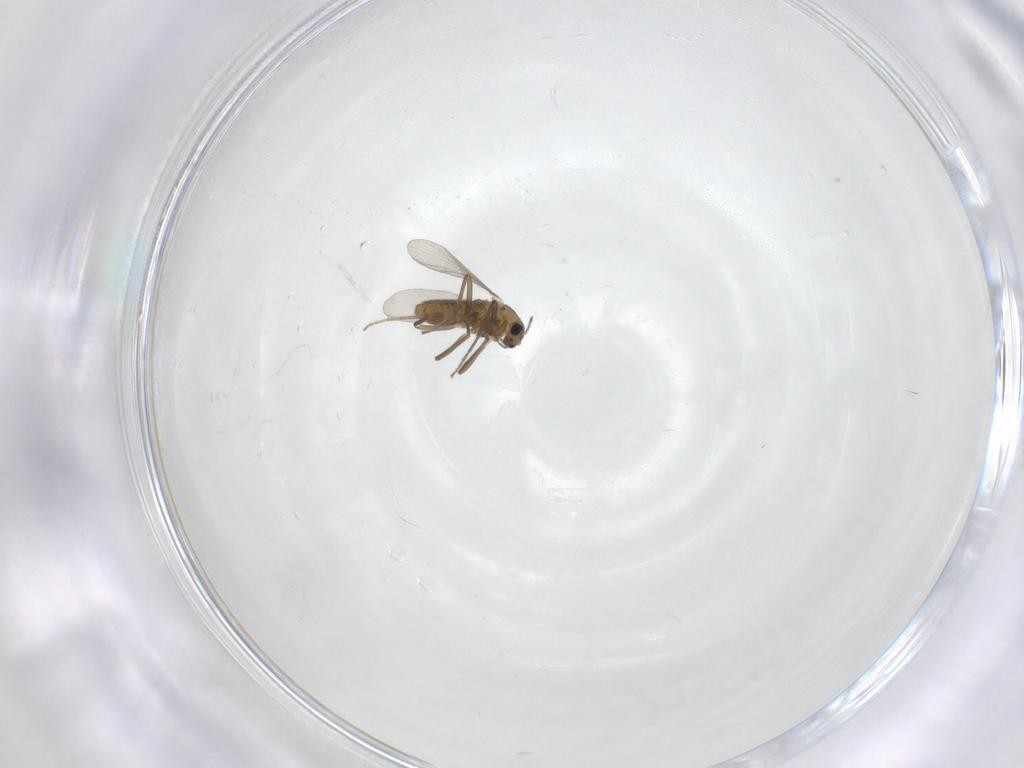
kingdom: Animalia
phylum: Arthropoda
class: Insecta
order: Diptera
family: Chironomidae
